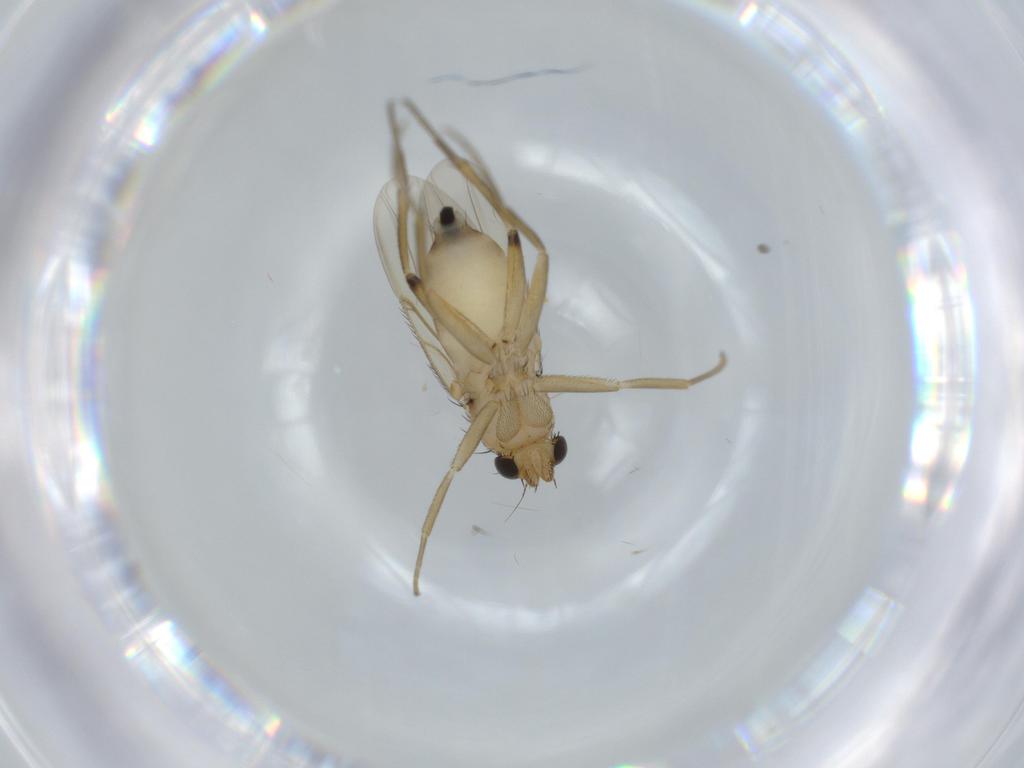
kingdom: Animalia
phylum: Arthropoda
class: Insecta
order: Diptera
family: Phoridae
